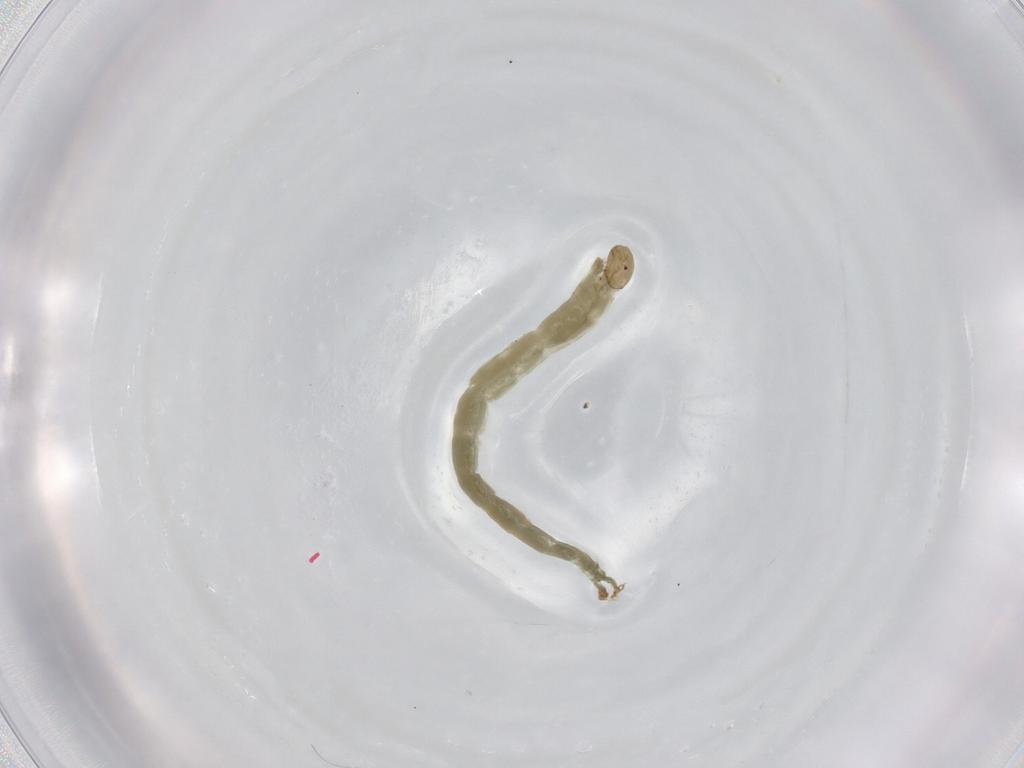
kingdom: Animalia
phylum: Arthropoda
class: Insecta
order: Diptera
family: Chironomidae
